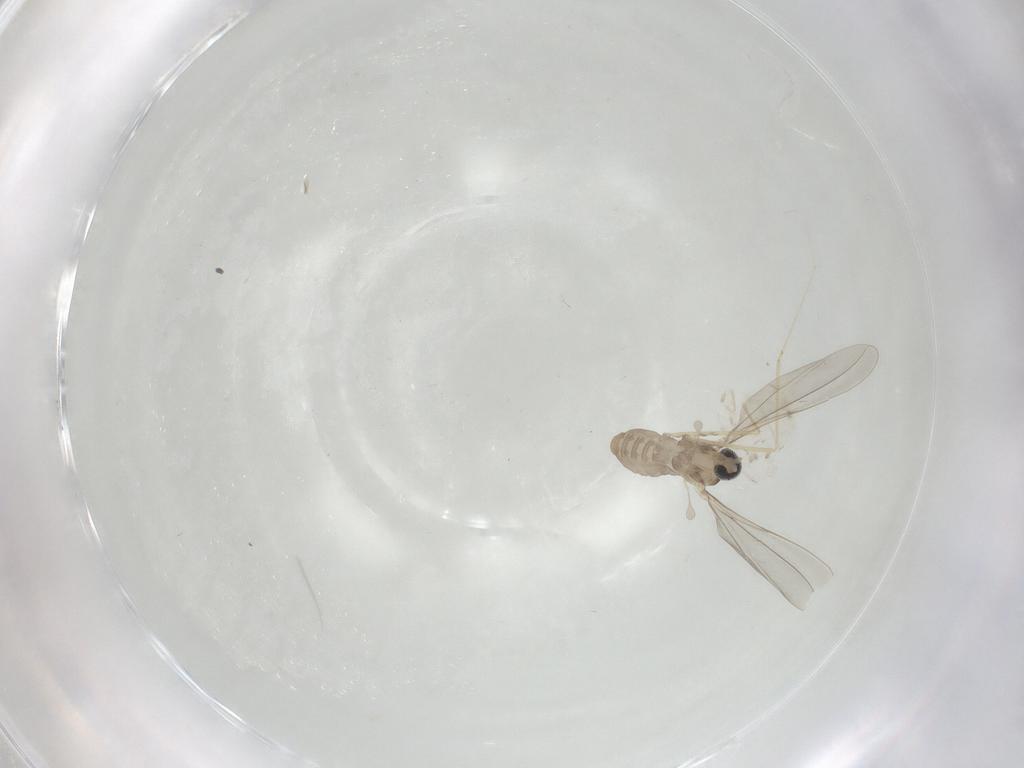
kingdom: Animalia
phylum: Arthropoda
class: Insecta
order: Diptera
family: Cecidomyiidae
